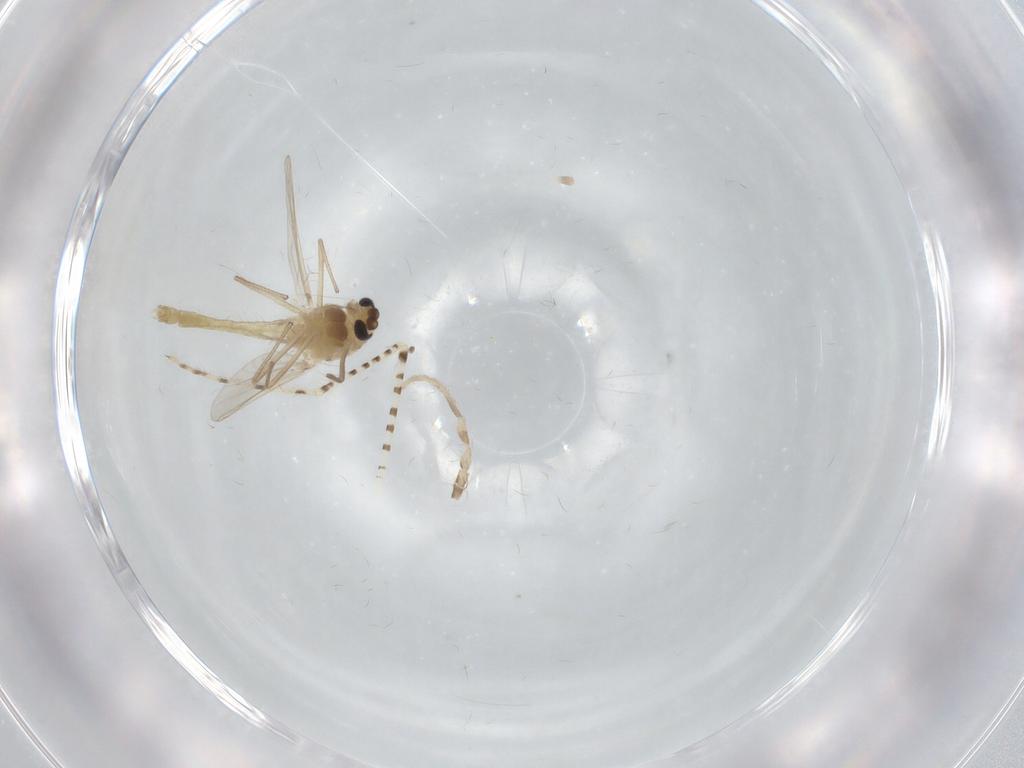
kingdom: Animalia
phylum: Arthropoda
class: Insecta
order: Diptera
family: Chironomidae
